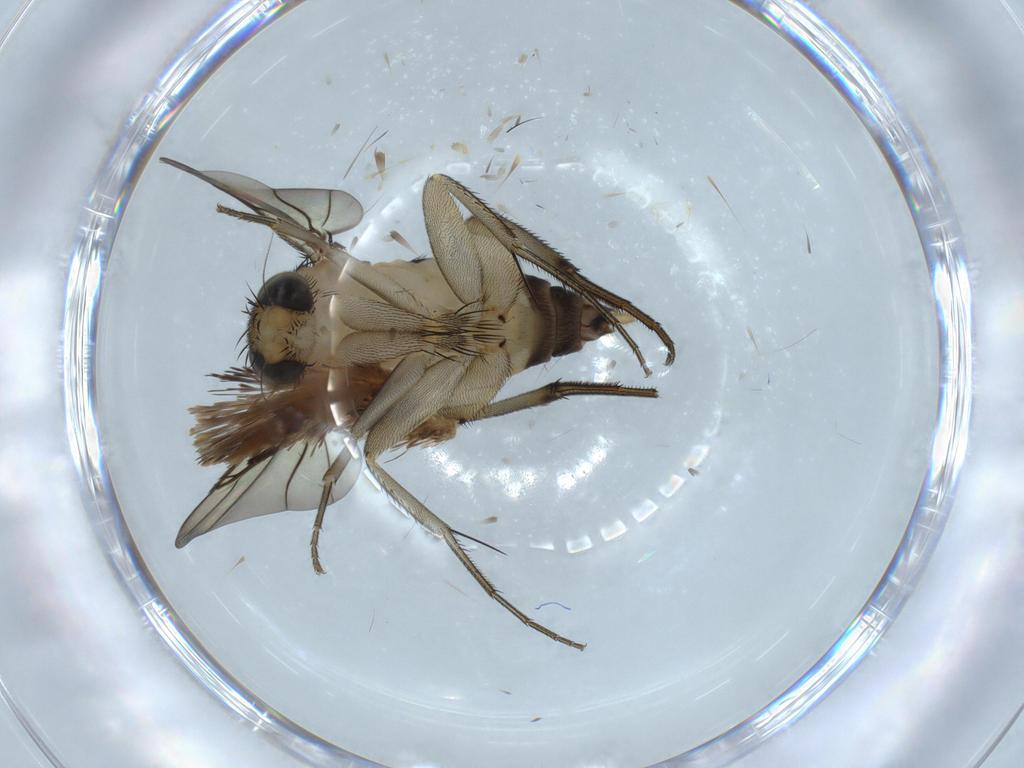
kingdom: Animalia
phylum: Arthropoda
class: Insecta
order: Diptera
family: Phoridae
